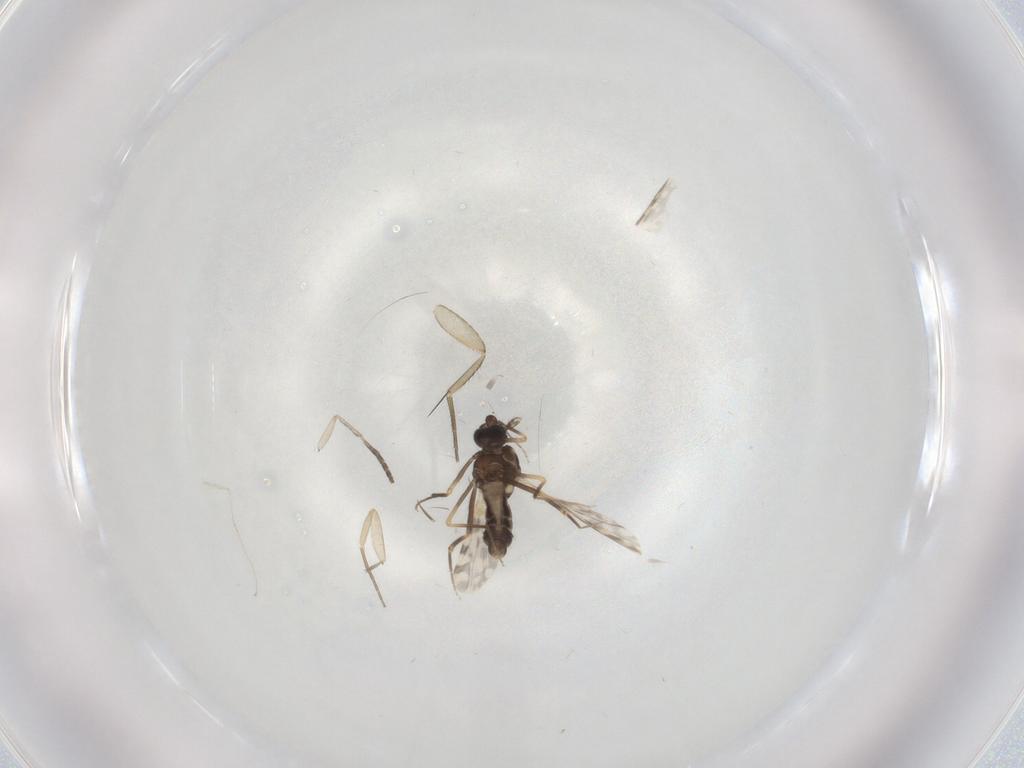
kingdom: Animalia
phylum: Arthropoda
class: Insecta
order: Diptera
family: Ceratopogonidae
